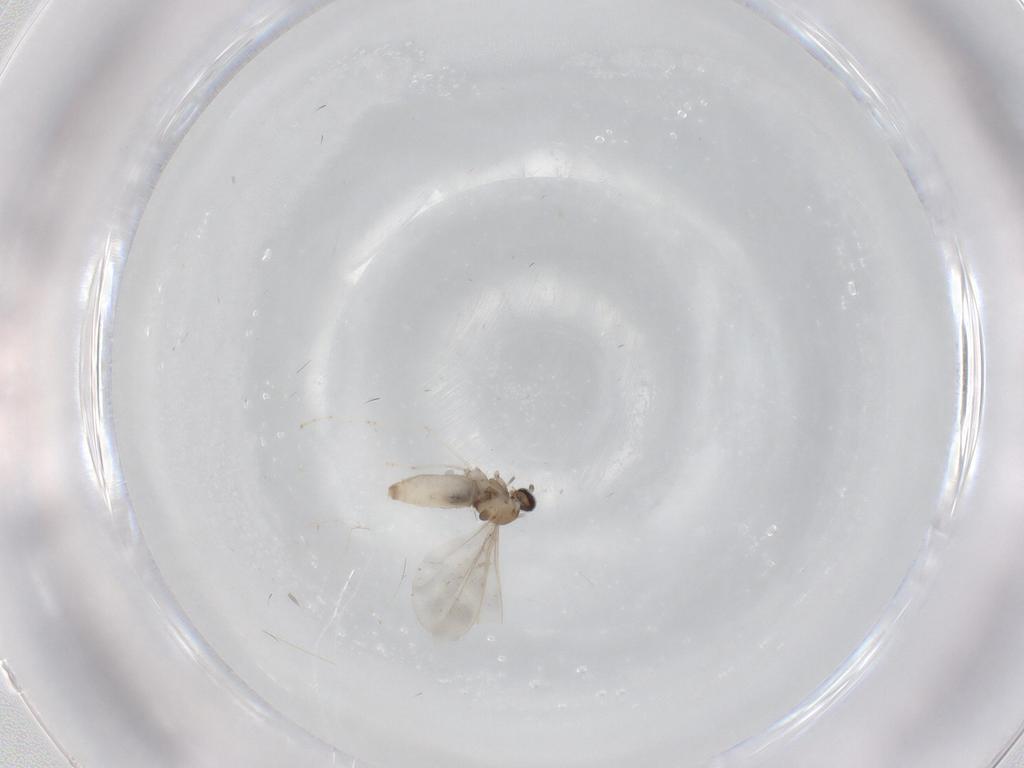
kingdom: Animalia
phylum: Arthropoda
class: Insecta
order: Diptera
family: Cecidomyiidae
